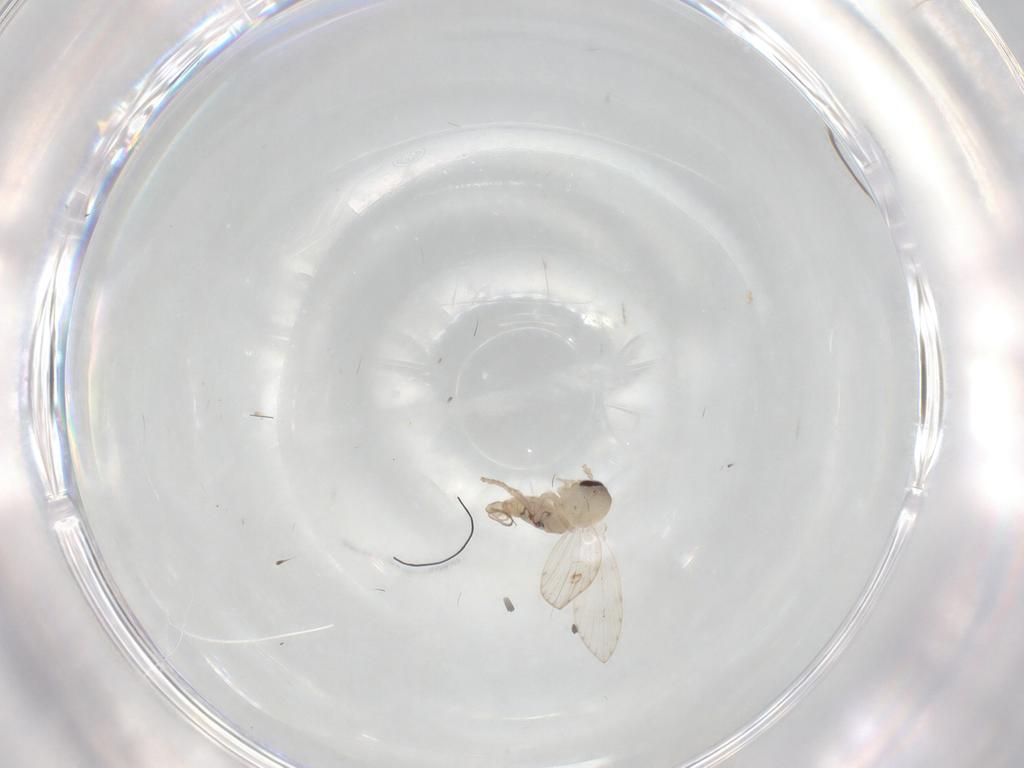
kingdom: Animalia
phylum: Arthropoda
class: Insecta
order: Diptera
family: Psychodidae
